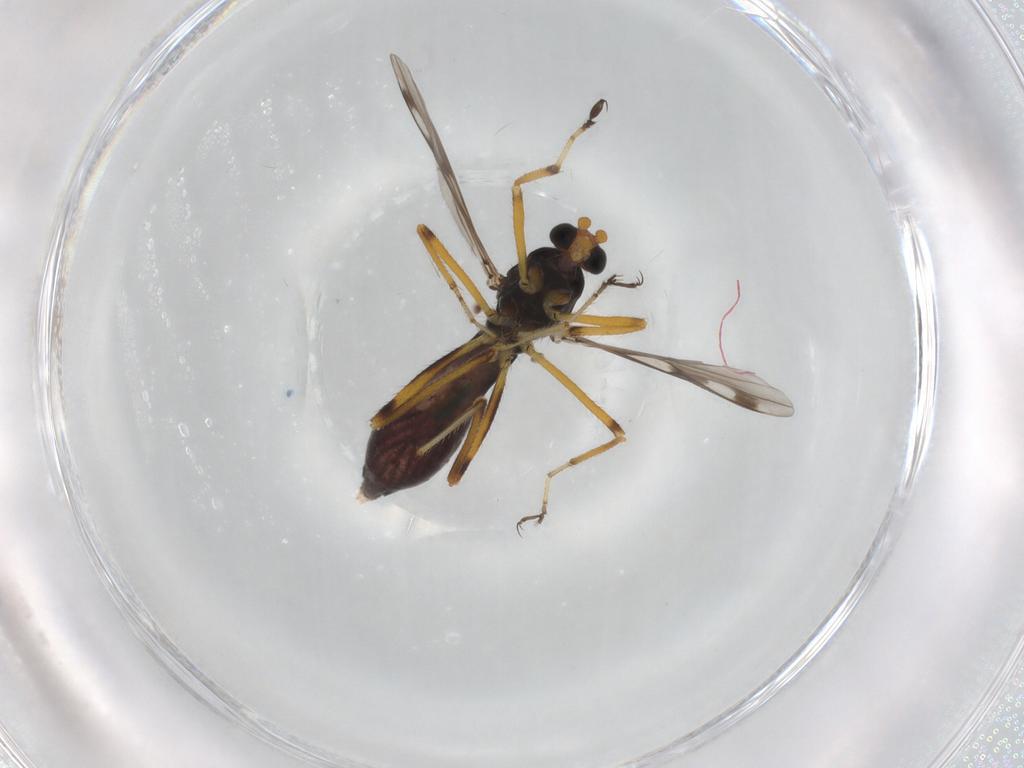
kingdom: Animalia
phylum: Arthropoda
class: Insecta
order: Diptera
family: Ceratopogonidae
